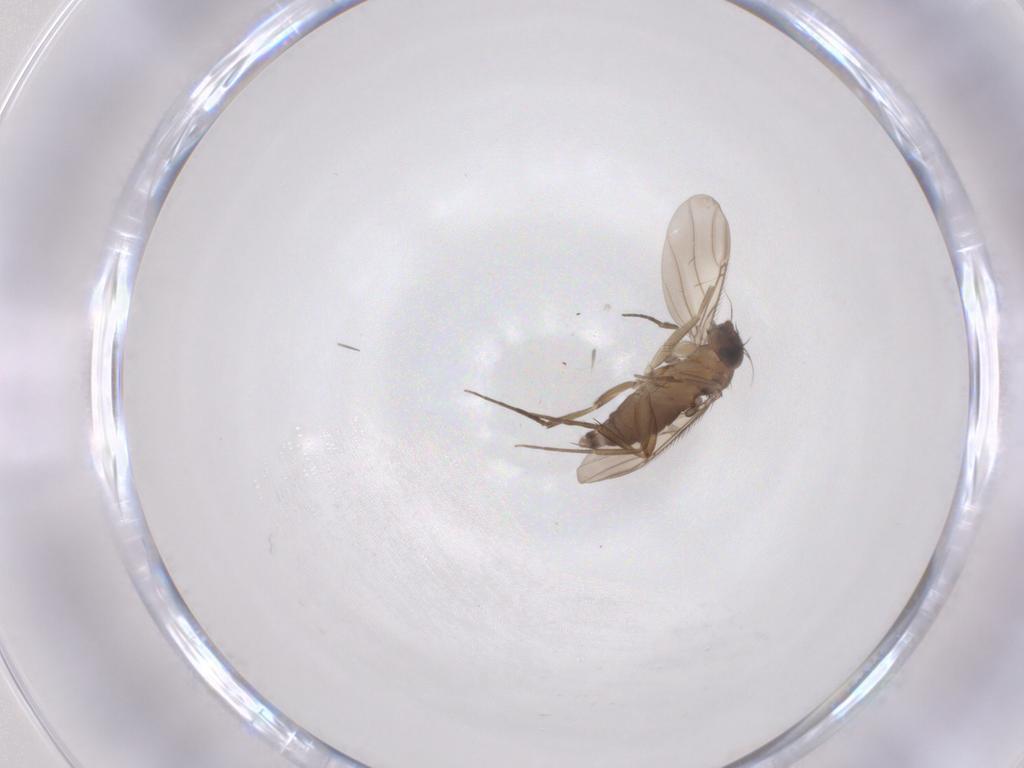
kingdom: Animalia
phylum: Arthropoda
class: Insecta
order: Diptera
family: Phoridae
